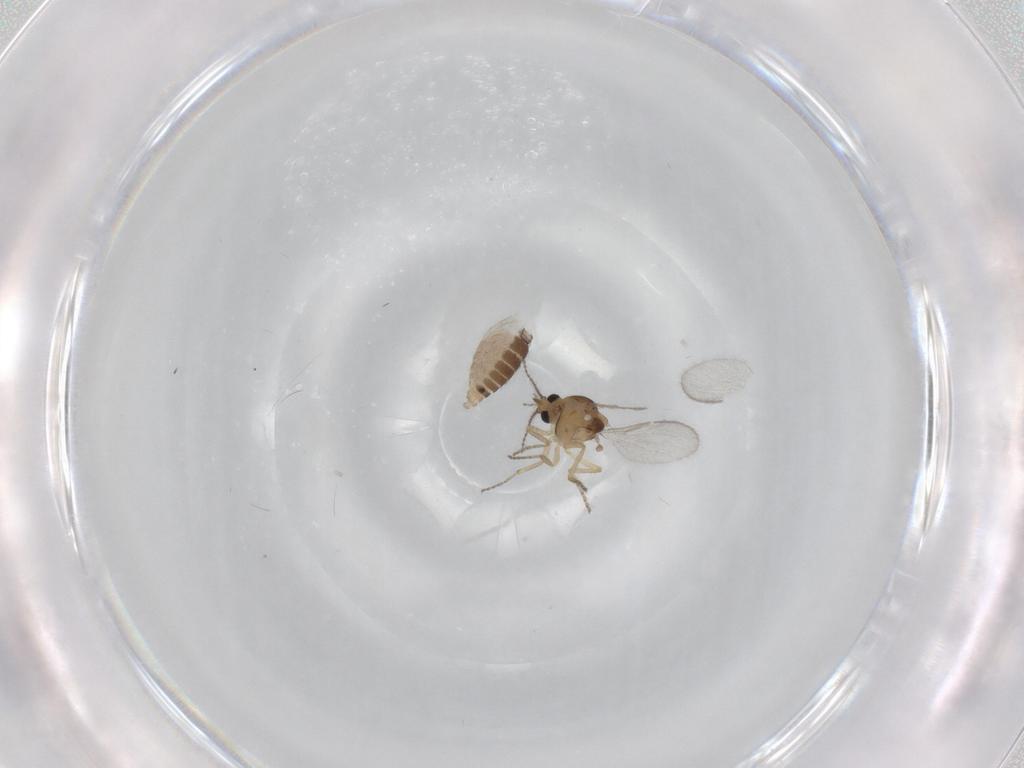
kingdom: Animalia
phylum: Arthropoda
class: Insecta
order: Diptera
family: Ceratopogonidae
